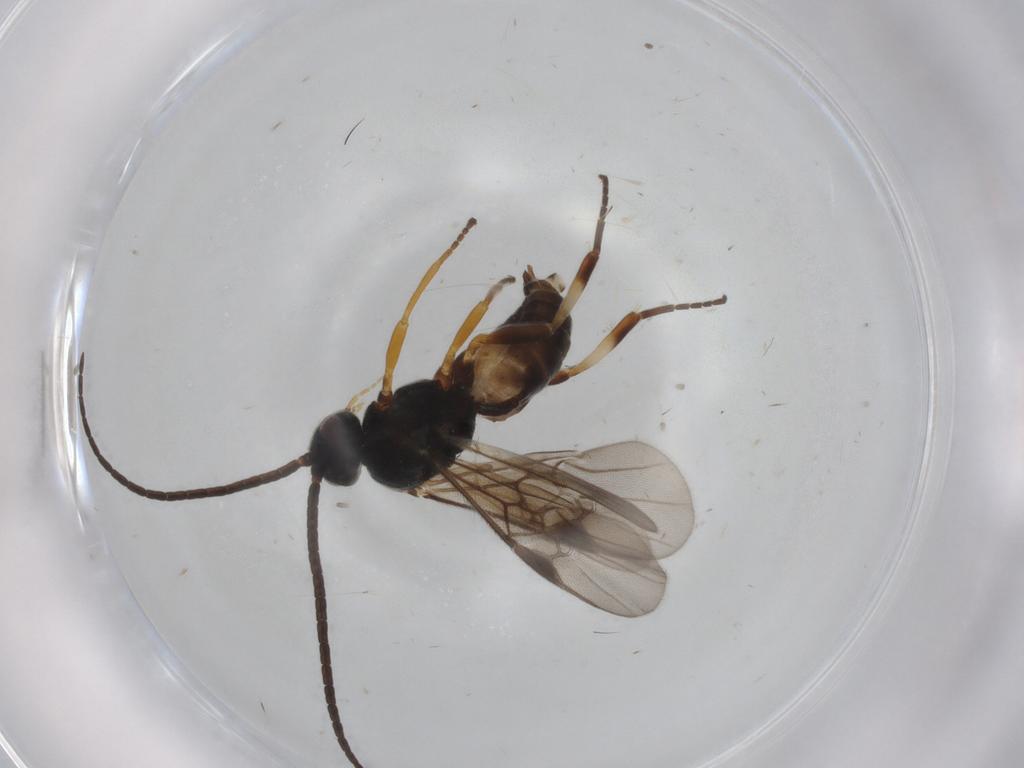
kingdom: Animalia
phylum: Arthropoda
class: Insecta
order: Hymenoptera
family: Braconidae
